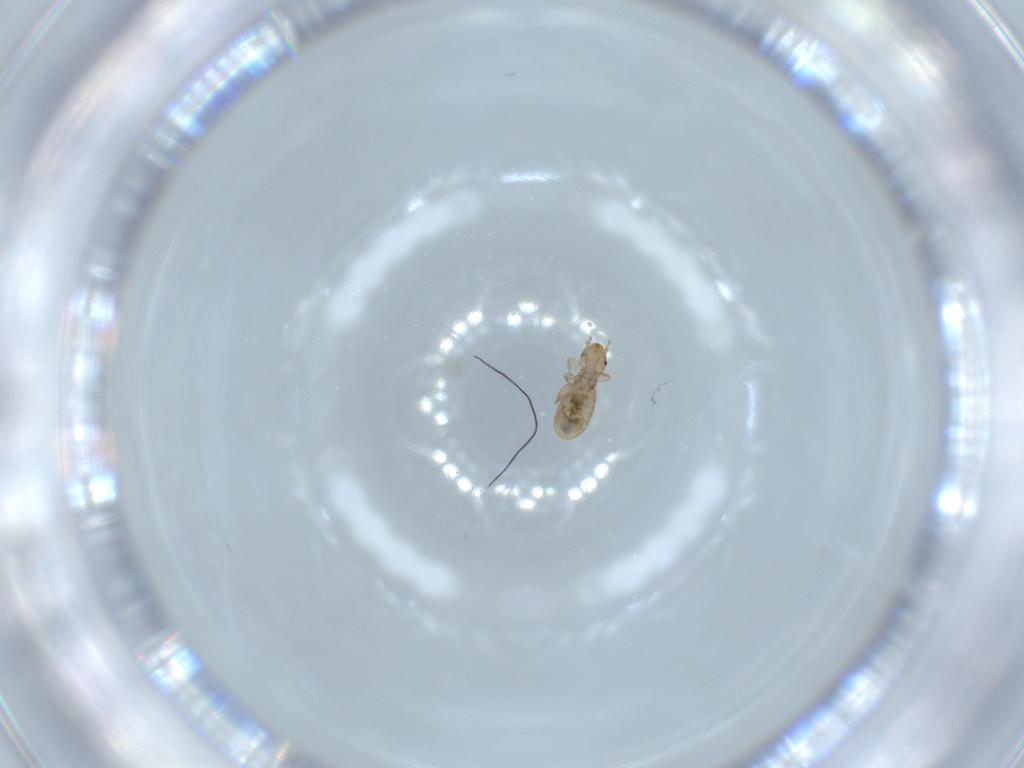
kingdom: Animalia
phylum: Arthropoda
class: Insecta
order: Psocodea
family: Liposcelididae
